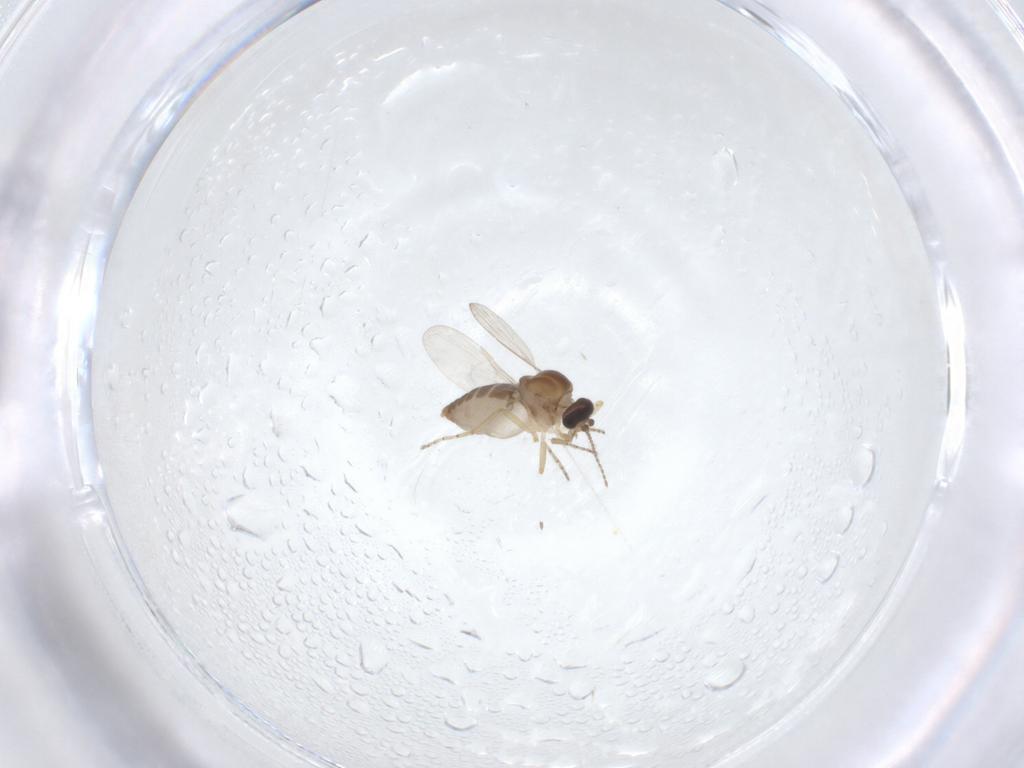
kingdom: Animalia
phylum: Arthropoda
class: Insecta
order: Diptera
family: Ceratopogonidae
